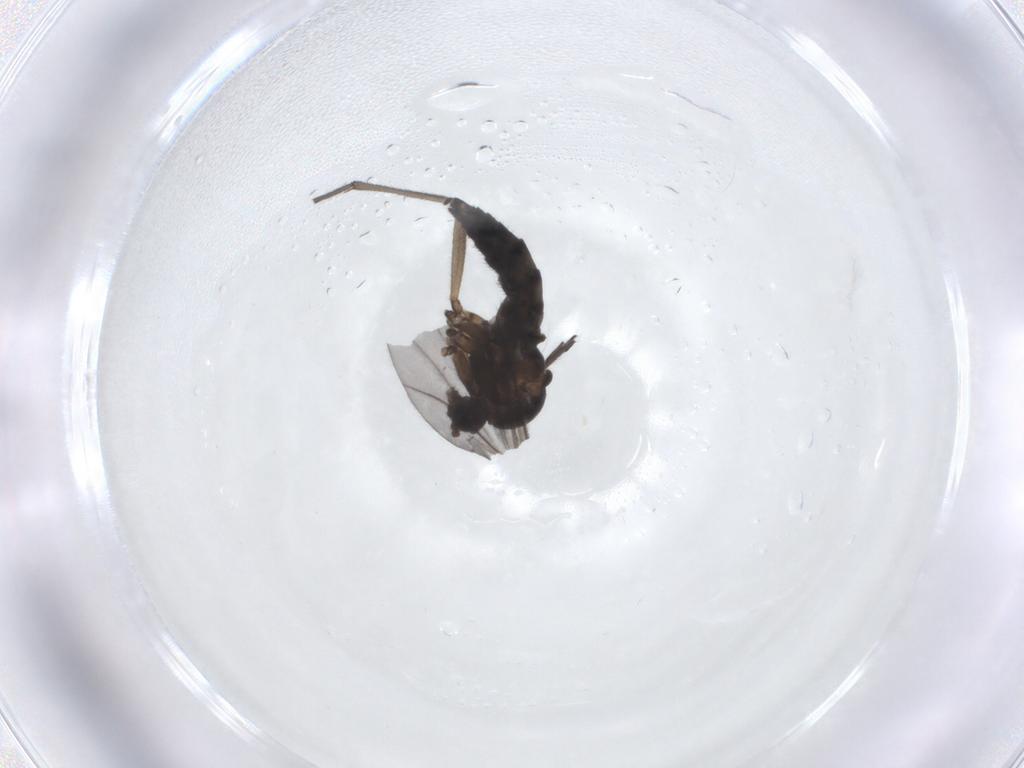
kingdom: Animalia
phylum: Arthropoda
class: Insecta
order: Diptera
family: Sciaridae
